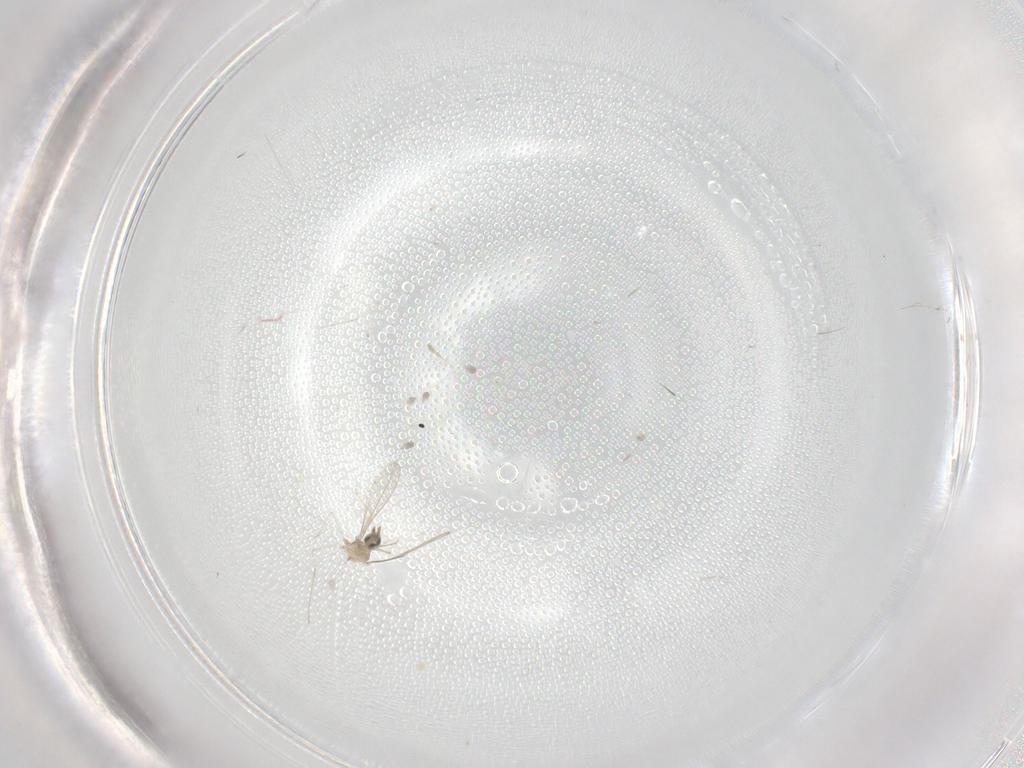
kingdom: Animalia
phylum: Arthropoda
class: Insecta
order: Diptera
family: Cecidomyiidae
